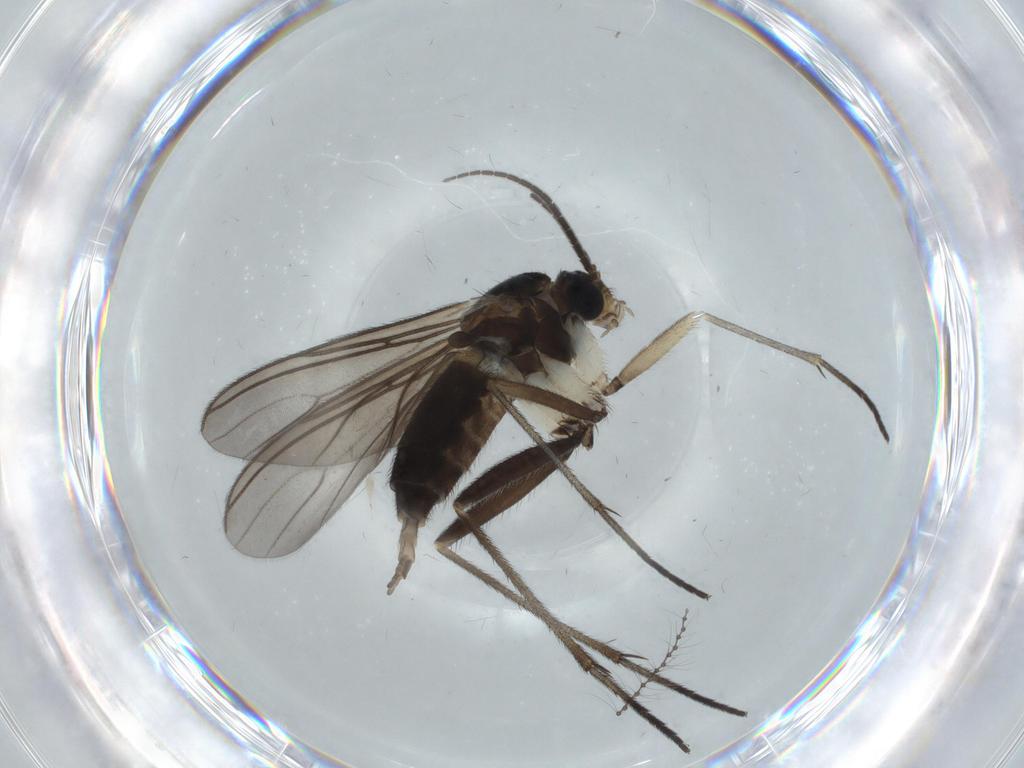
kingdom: Animalia
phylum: Arthropoda
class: Insecta
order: Diptera
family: Sciaridae
